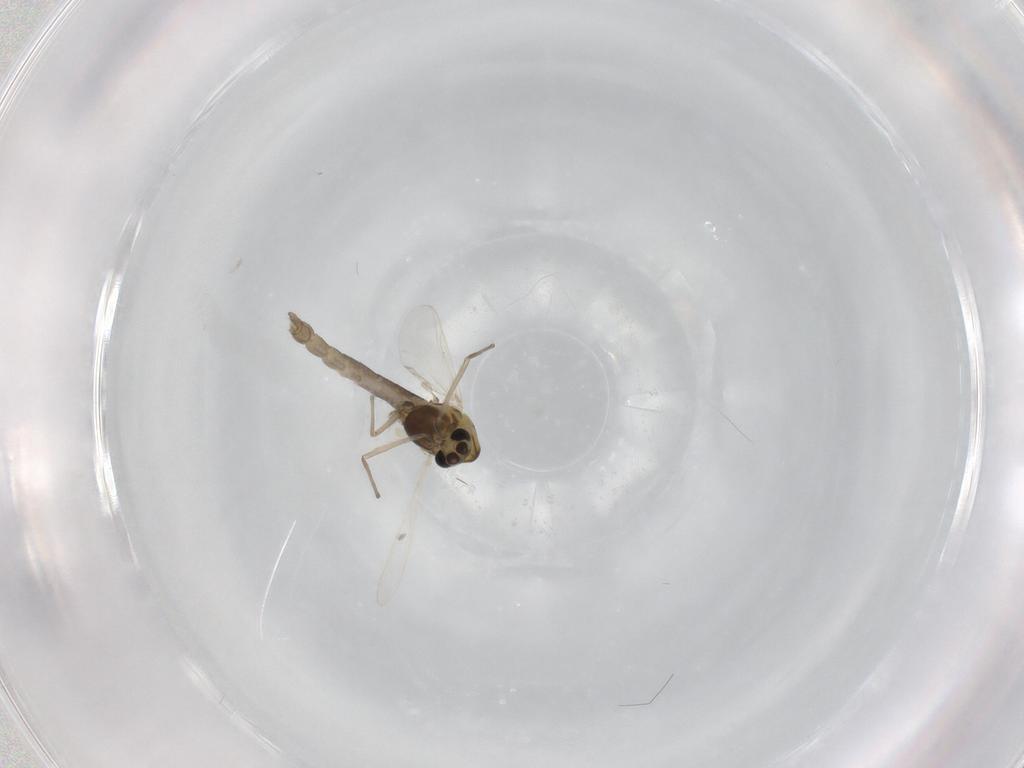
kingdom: Animalia
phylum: Arthropoda
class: Insecta
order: Diptera
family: Chironomidae
